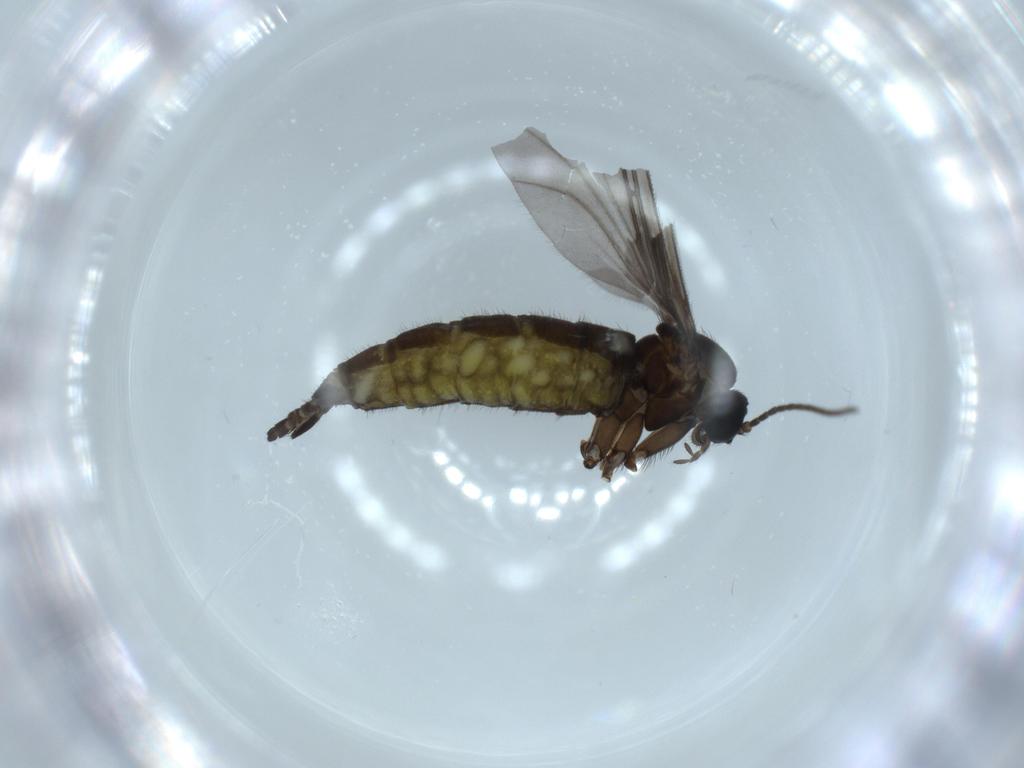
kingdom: Animalia
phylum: Arthropoda
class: Insecta
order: Diptera
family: Sciaridae
